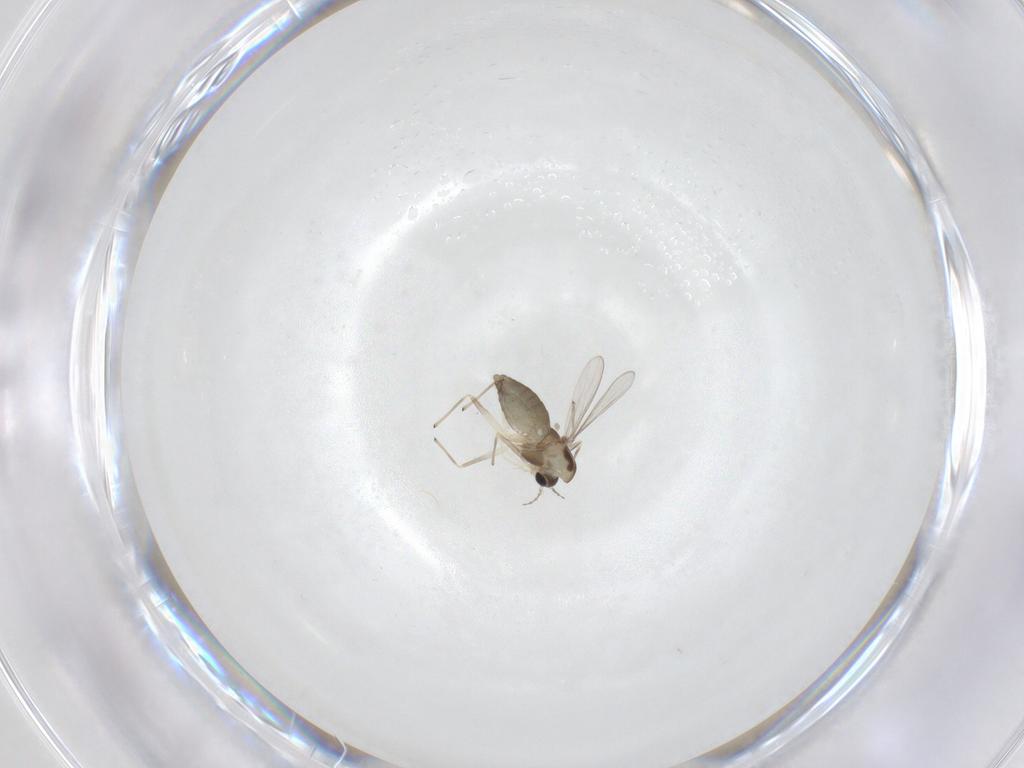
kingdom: Animalia
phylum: Arthropoda
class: Insecta
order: Diptera
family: Chironomidae
